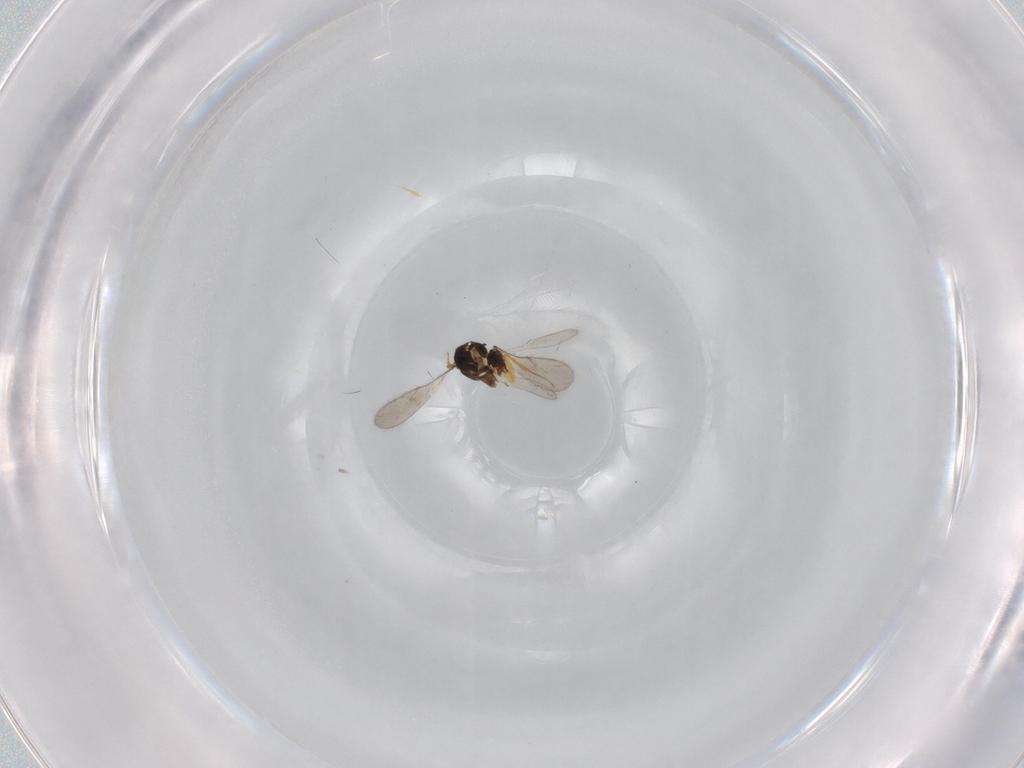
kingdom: Animalia
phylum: Arthropoda
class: Insecta
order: Hymenoptera
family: Scelionidae
